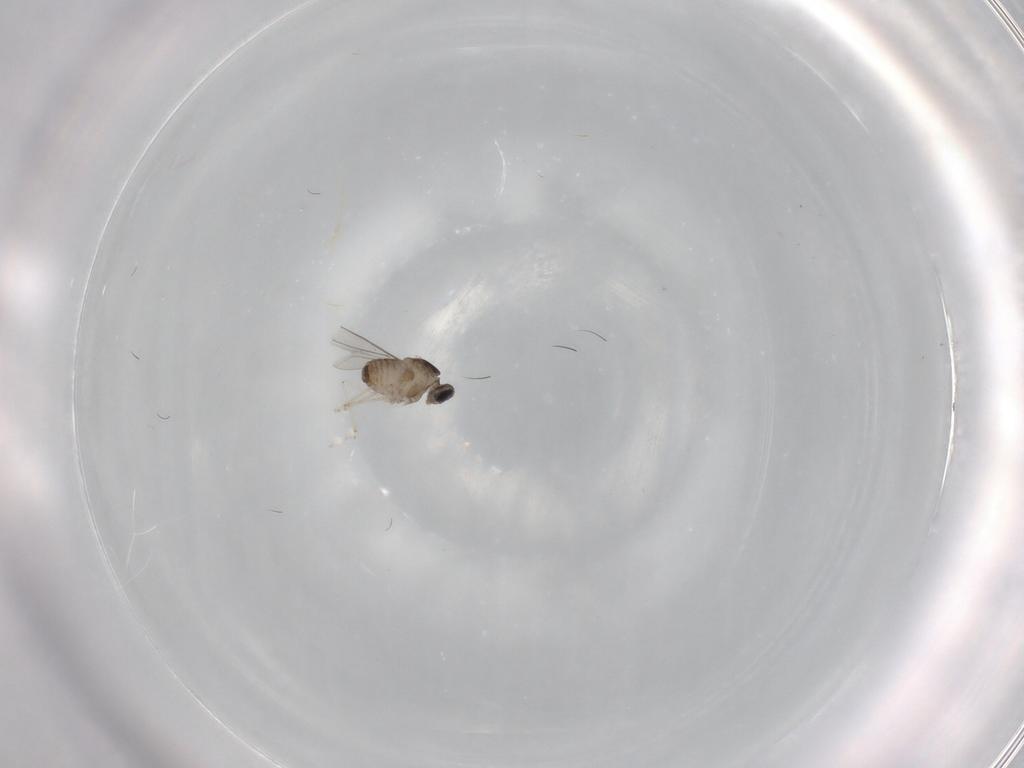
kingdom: Animalia
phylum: Arthropoda
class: Insecta
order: Diptera
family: Cecidomyiidae
